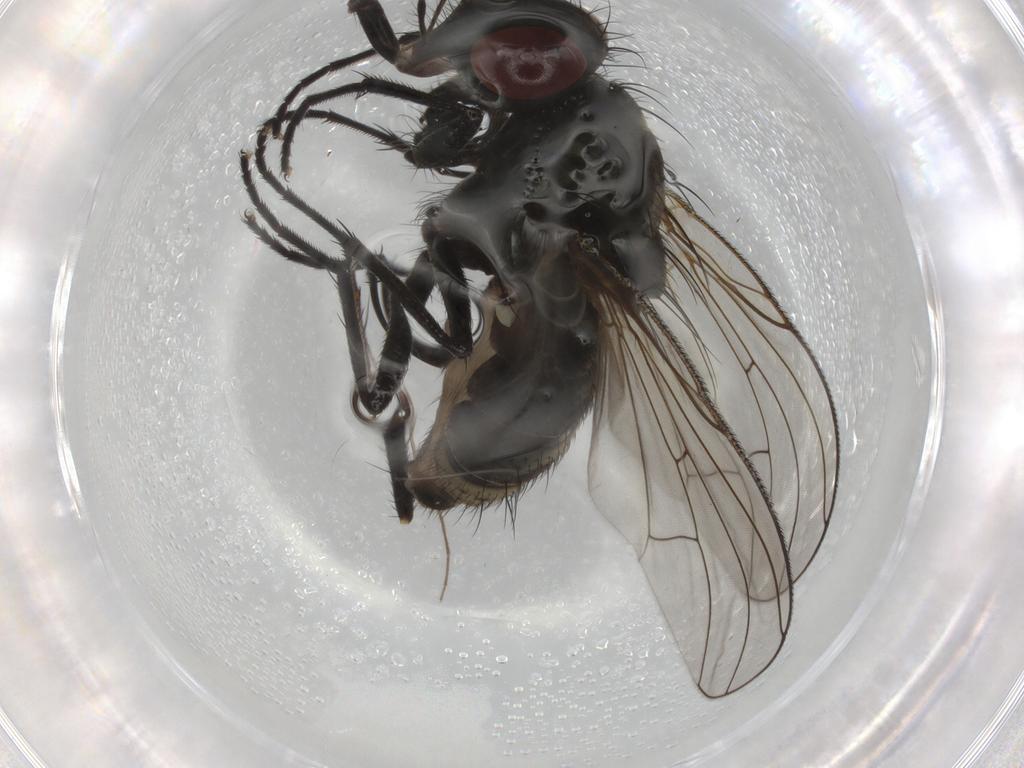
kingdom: Animalia
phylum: Arthropoda
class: Insecta
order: Diptera
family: Muscidae
